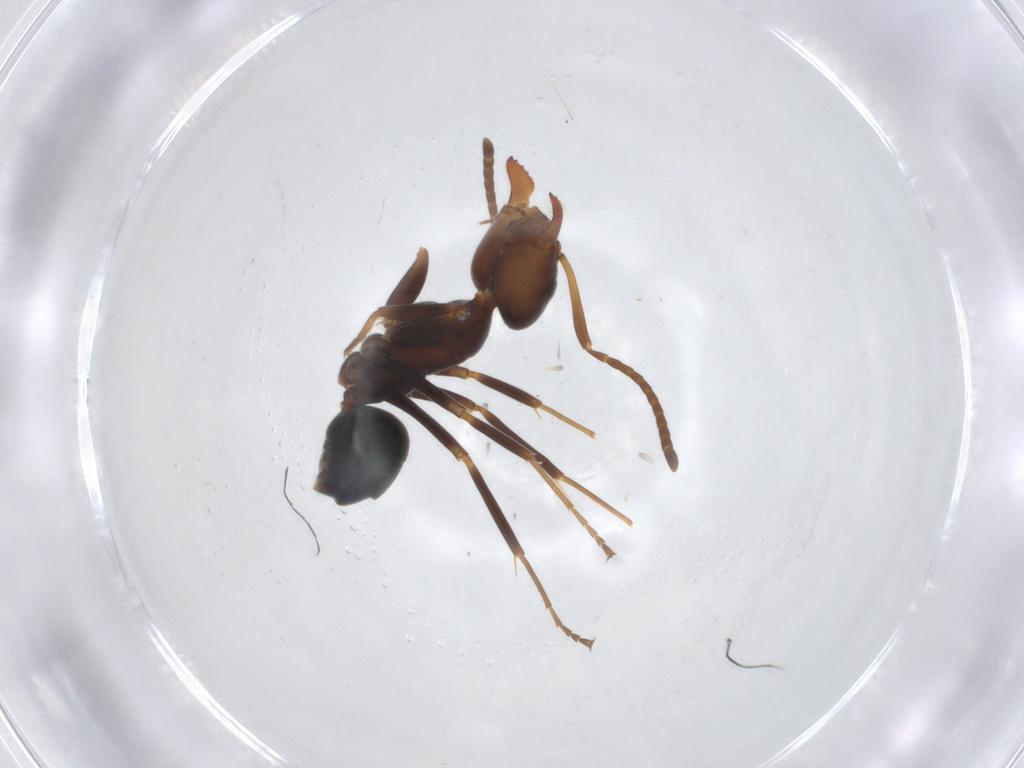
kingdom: Animalia
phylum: Arthropoda
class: Insecta
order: Hymenoptera
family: Formicidae
